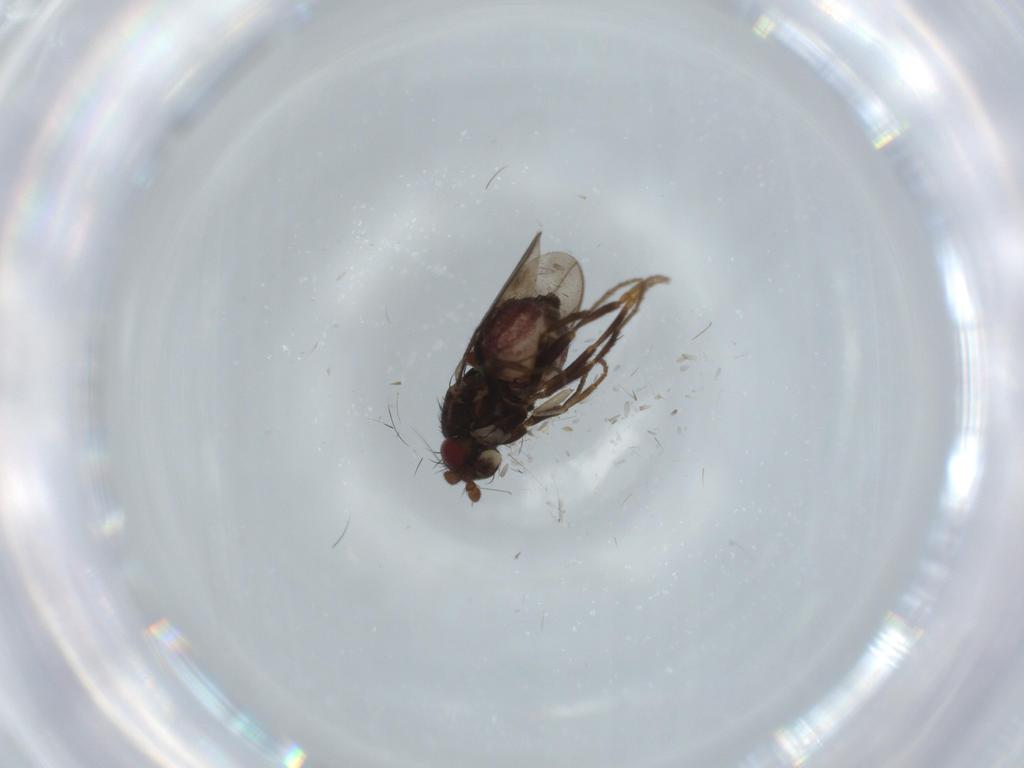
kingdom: Animalia
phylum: Arthropoda
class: Insecta
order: Diptera
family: Sphaeroceridae
